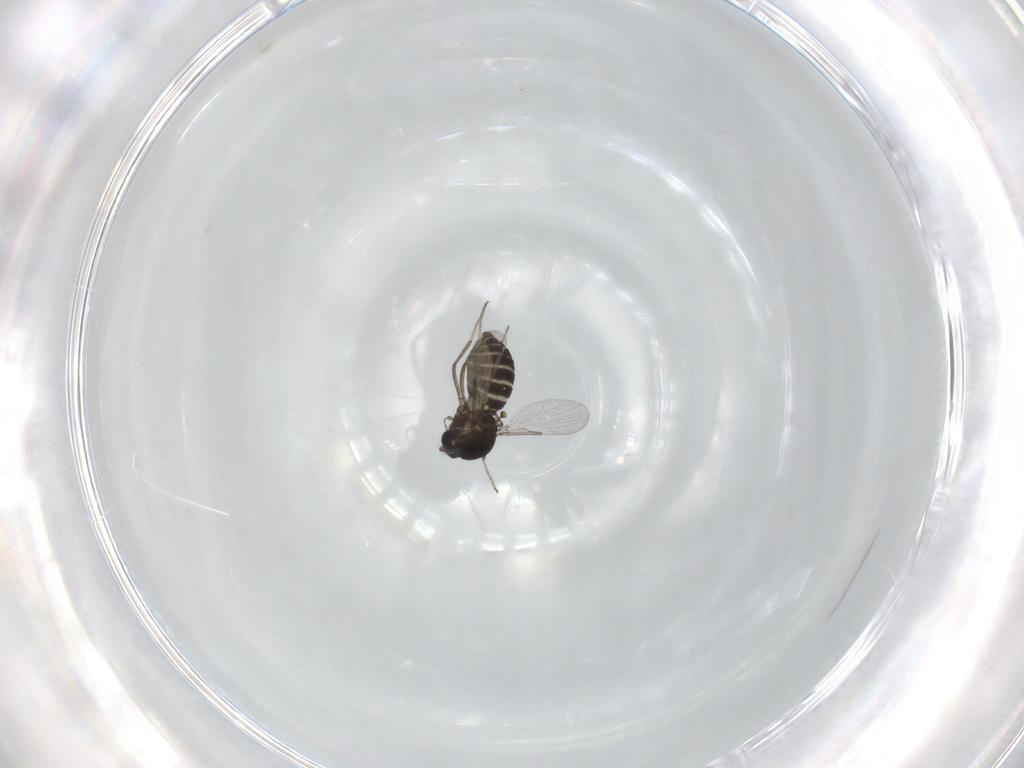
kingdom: Animalia
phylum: Arthropoda
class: Insecta
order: Diptera
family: Ceratopogonidae
